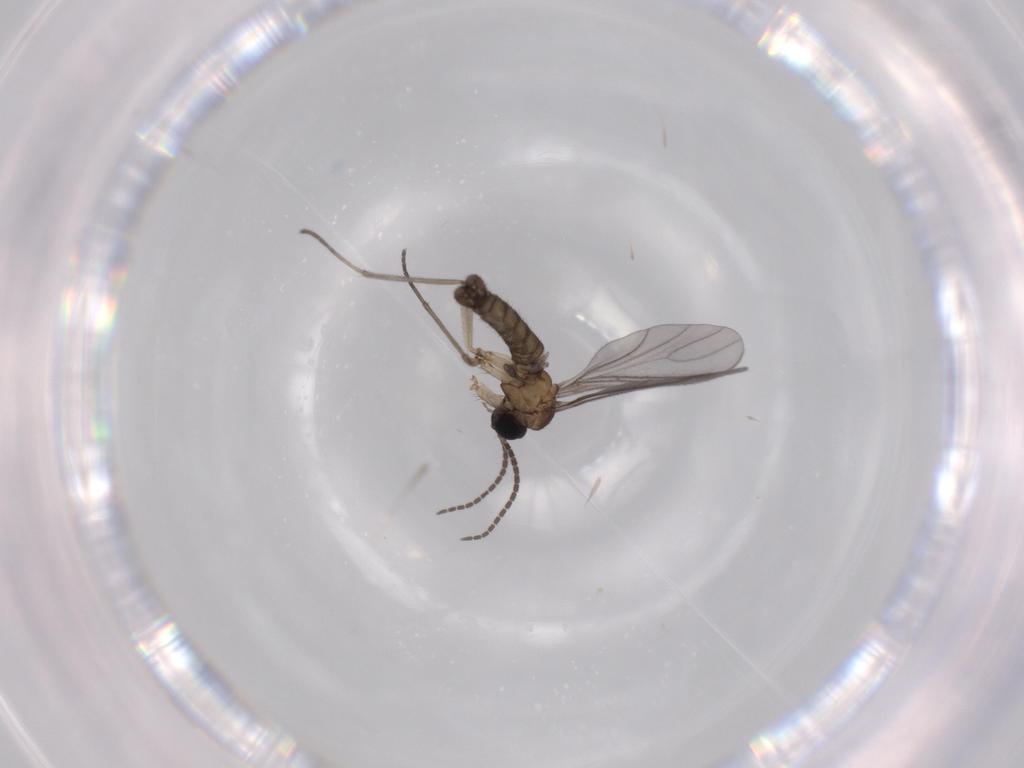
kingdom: Animalia
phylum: Arthropoda
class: Insecta
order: Diptera
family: Sciaridae
